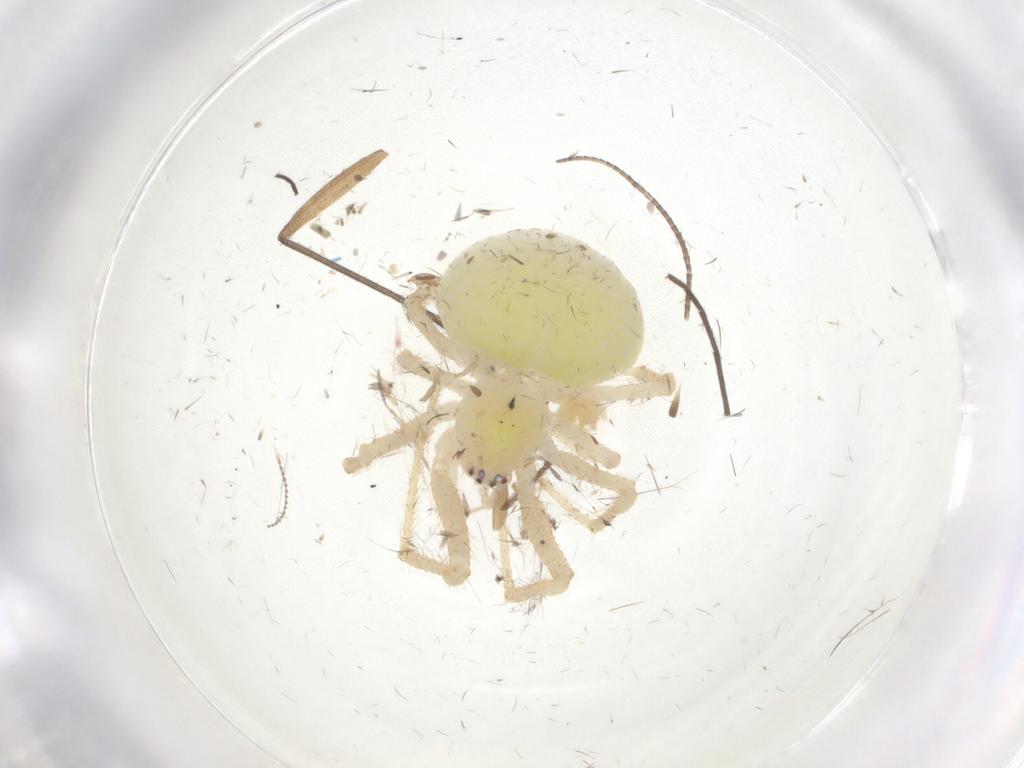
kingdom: Animalia
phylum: Arthropoda
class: Arachnida
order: Araneae
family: Theridiidae
